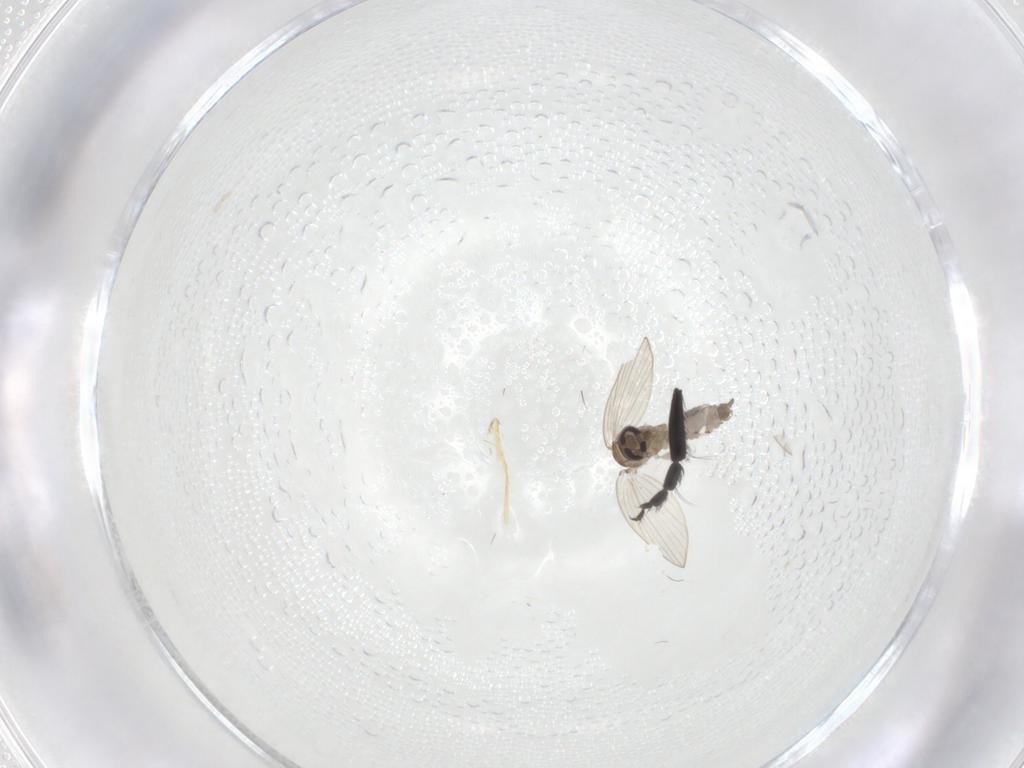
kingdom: Animalia
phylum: Arthropoda
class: Insecta
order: Diptera
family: Simuliidae
